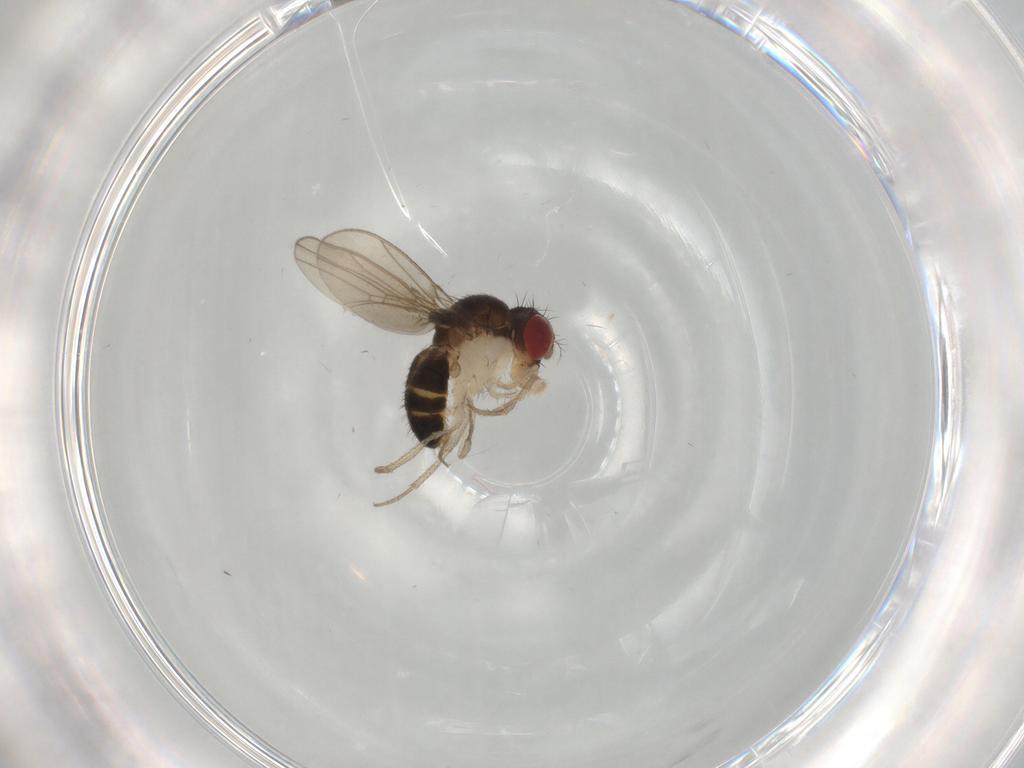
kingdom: Animalia
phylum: Arthropoda
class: Insecta
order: Diptera
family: Drosophilidae
